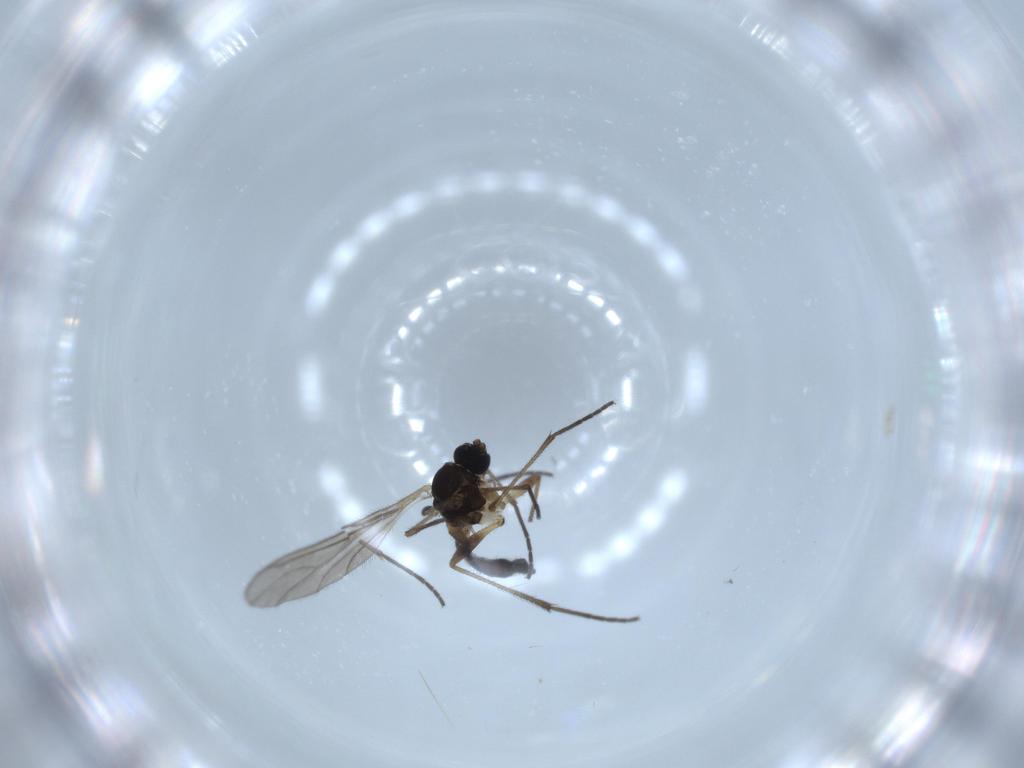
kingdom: Animalia
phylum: Arthropoda
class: Insecta
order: Diptera
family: Sciaridae
